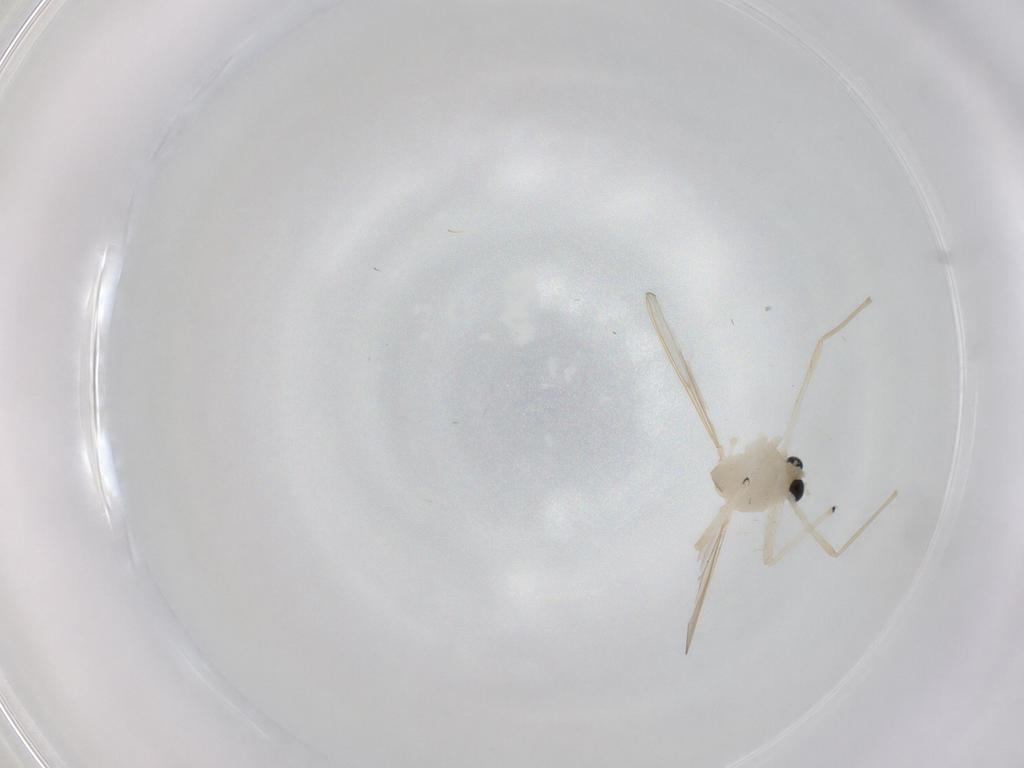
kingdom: Animalia
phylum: Arthropoda
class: Insecta
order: Diptera
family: Chironomidae
